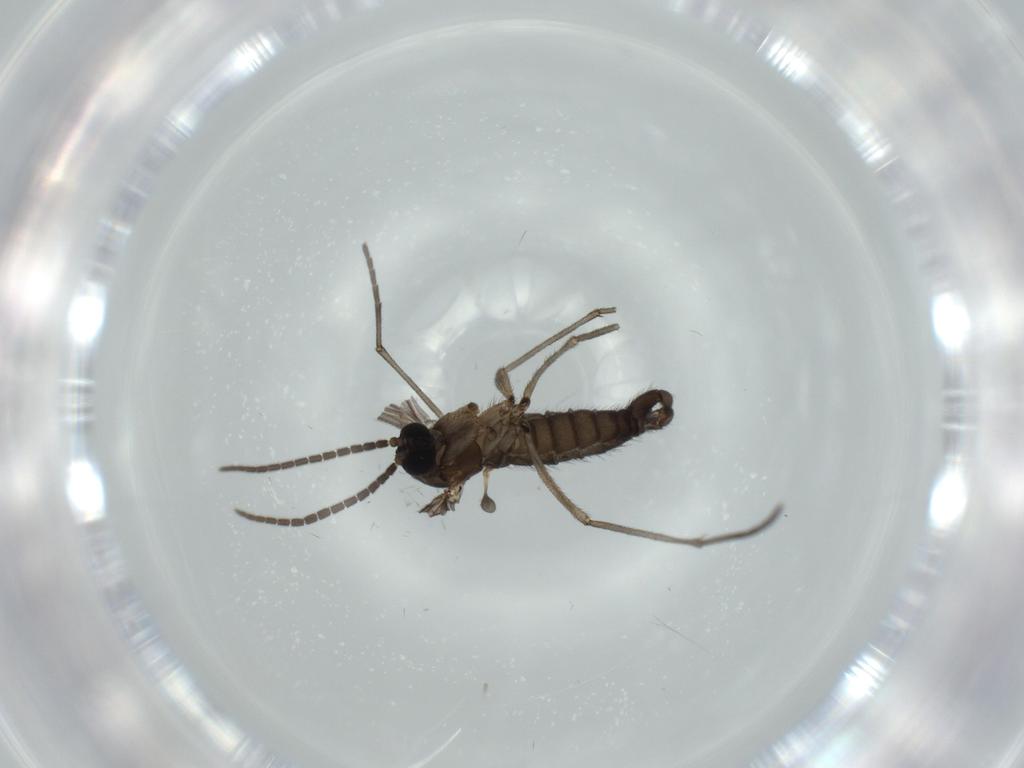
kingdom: Animalia
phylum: Arthropoda
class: Insecta
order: Diptera
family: Sciaridae
